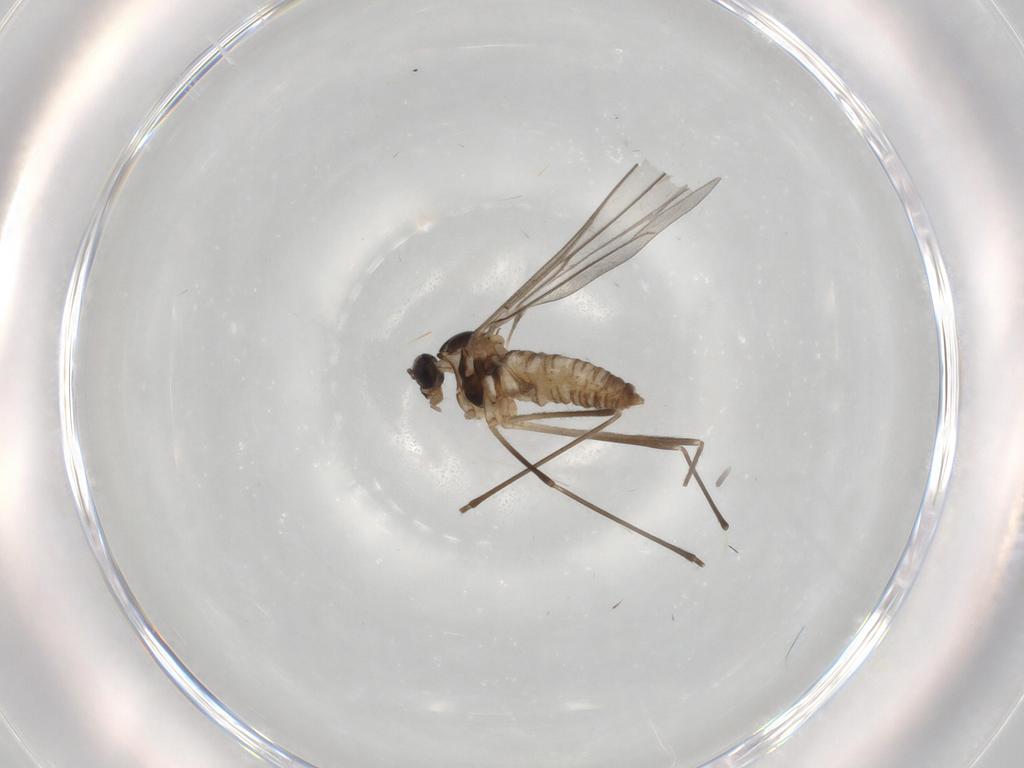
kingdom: Animalia
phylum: Arthropoda
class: Insecta
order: Diptera
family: Cecidomyiidae
